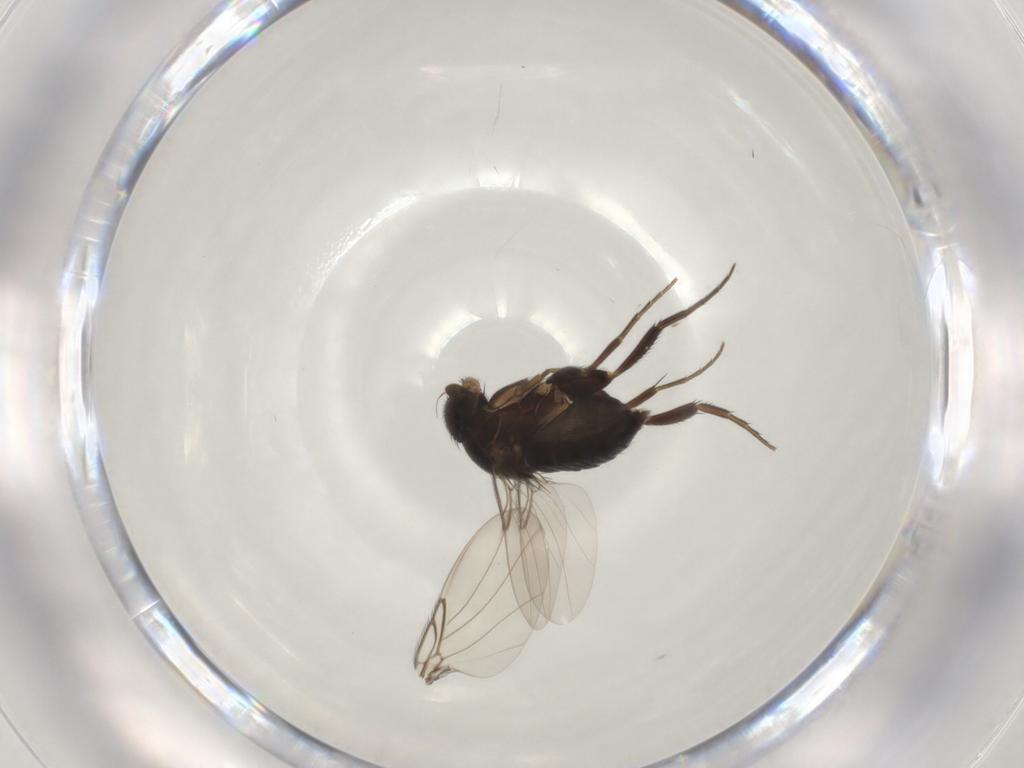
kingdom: Animalia
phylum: Arthropoda
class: Insecta
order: Diptera
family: Phoridae
